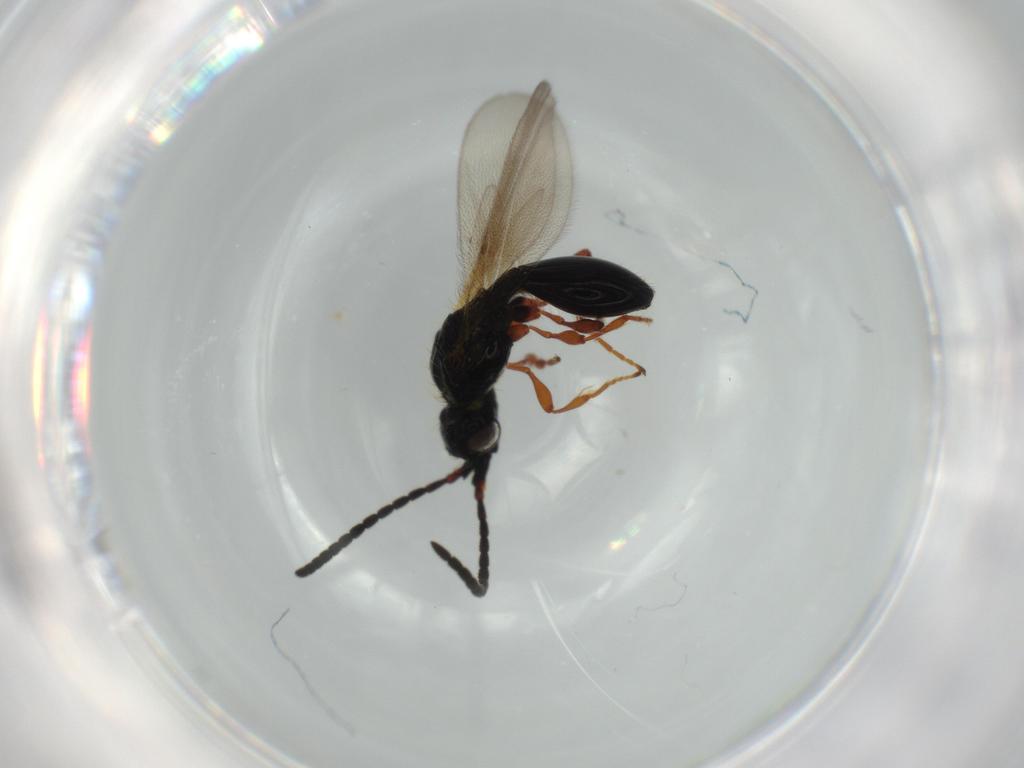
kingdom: Animalia
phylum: Arthropoda
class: Insecta
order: Hymenoptera
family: Diapriidae
